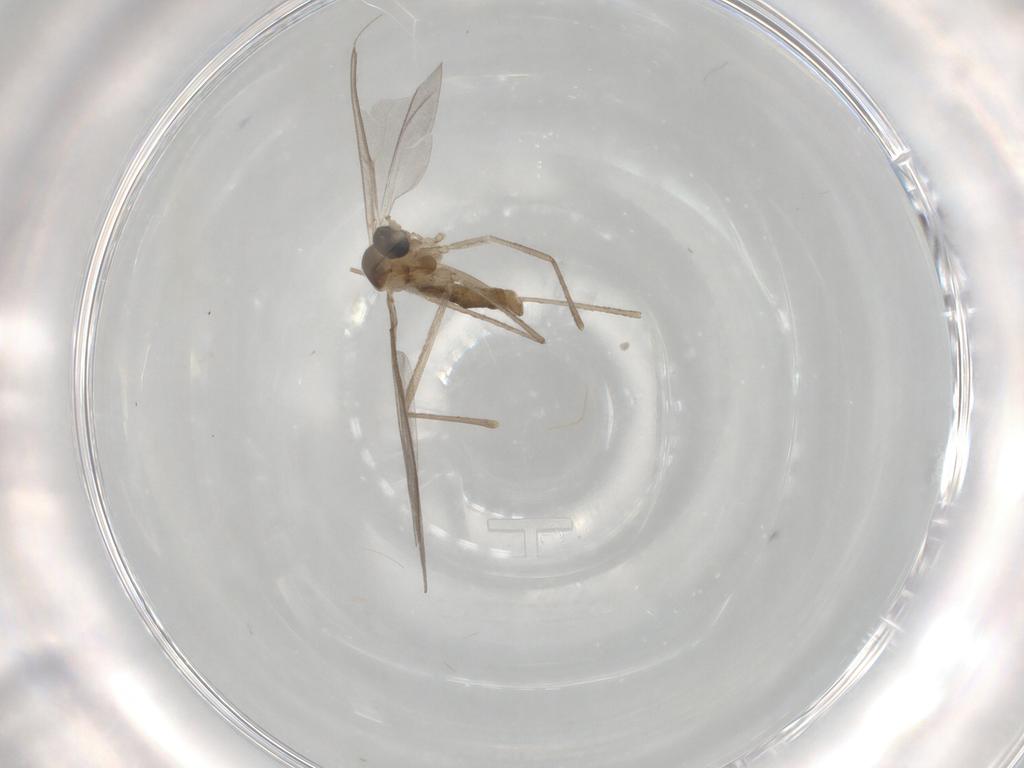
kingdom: Animalia
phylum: Arthropoda
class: Insecta
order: Diptera
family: Cecidomyiidae
